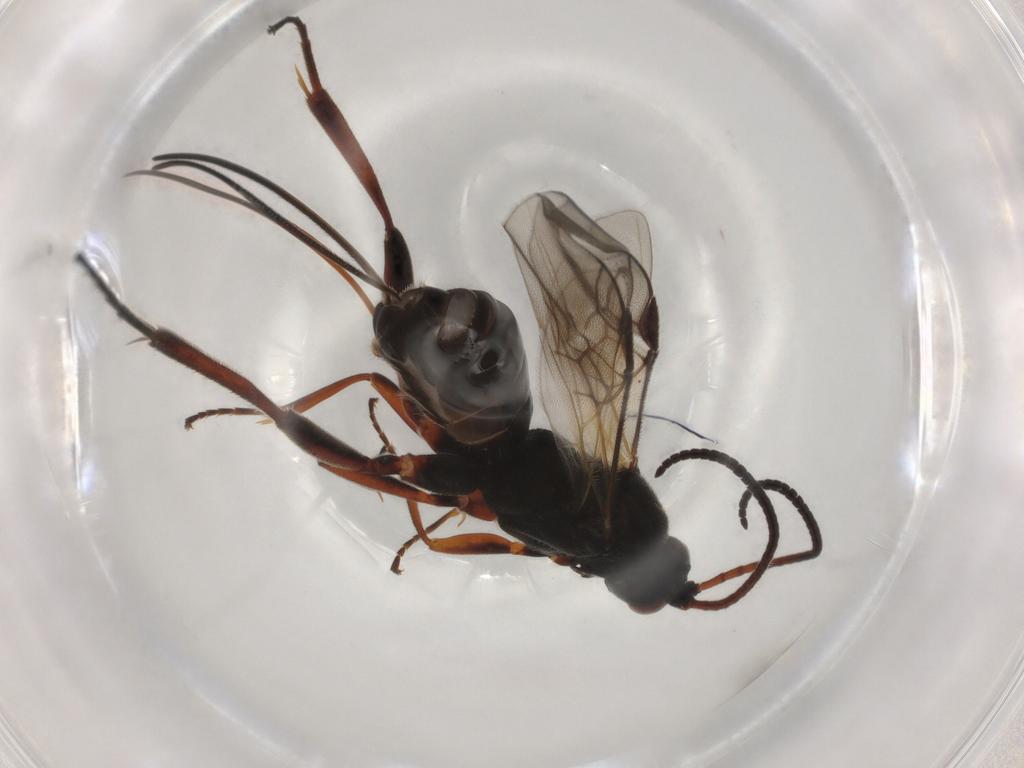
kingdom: Animalia
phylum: Arthropoda
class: Insecta
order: Hymenoptera
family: Braconidae
